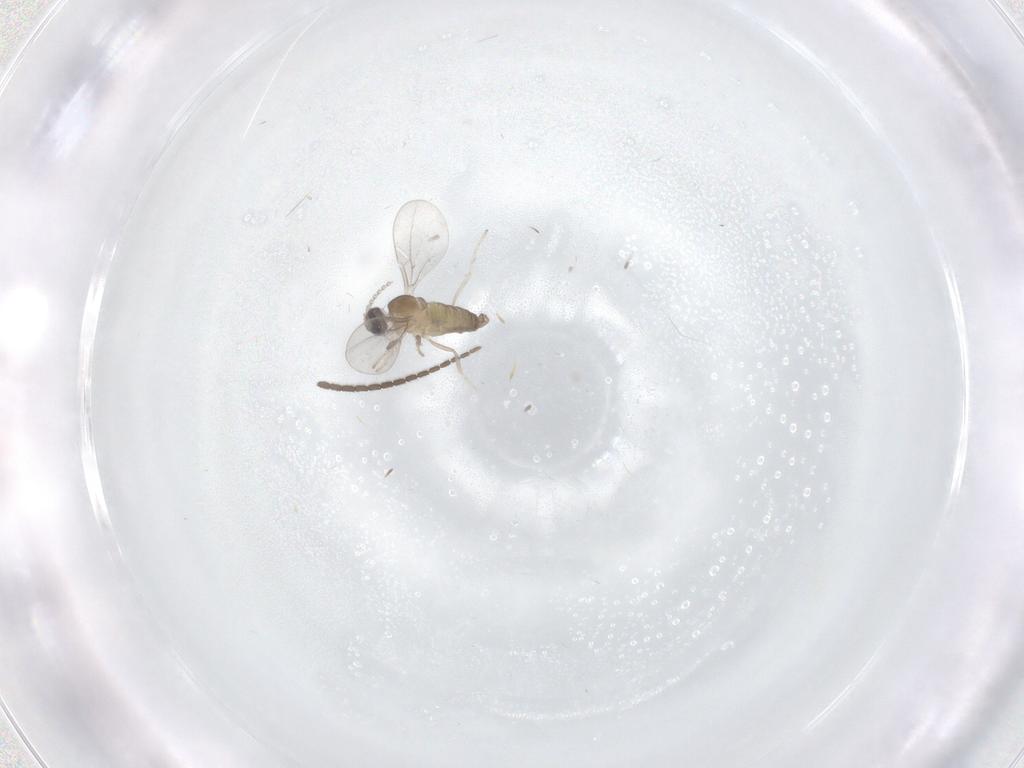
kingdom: Animalia
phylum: Arthropoda
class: Insecta
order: Diptera
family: Cecidomyiidae
